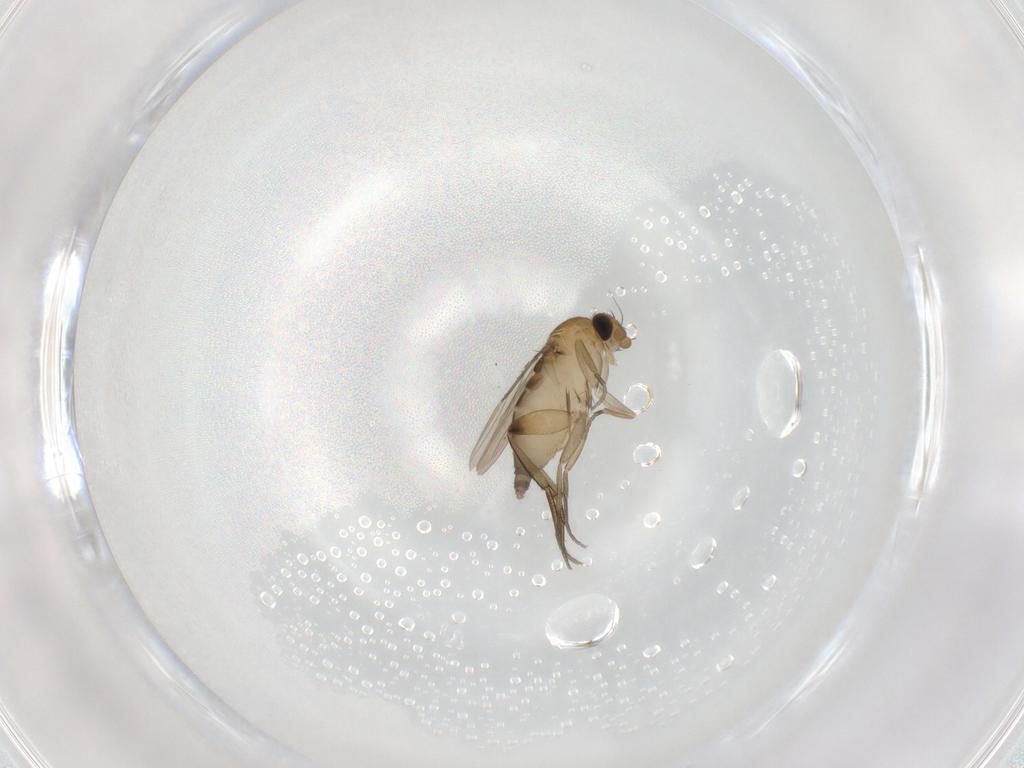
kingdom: Animalia
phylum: Arthropoda
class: Insecta
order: Diptera
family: Phoridae
